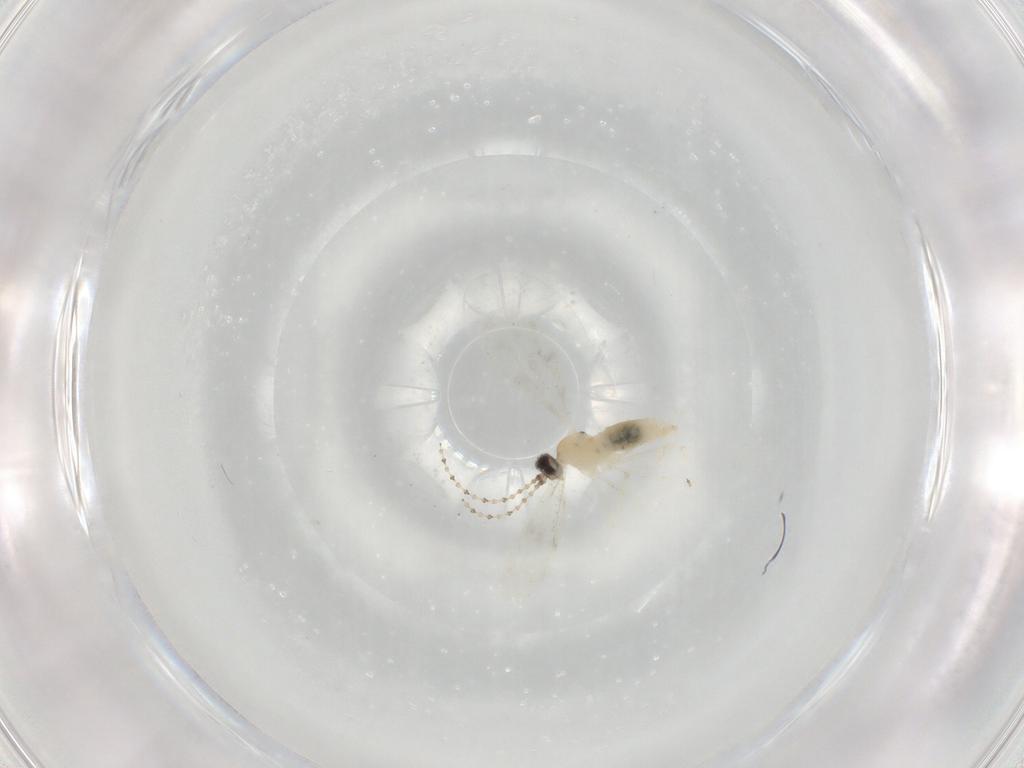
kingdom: Animalia
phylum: Arthropoda
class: Insecta
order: Diptera
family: Cecidomyiidae
